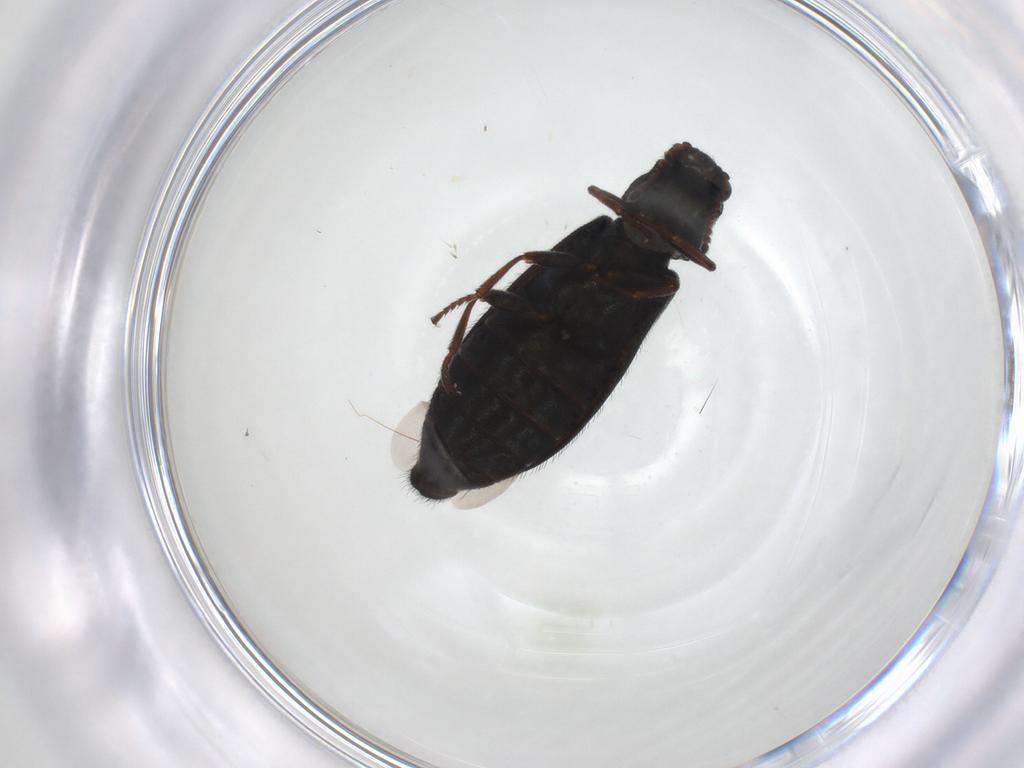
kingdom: Animalia
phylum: Arthropoda
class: Insecta
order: Coleoptera
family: Melyridae
